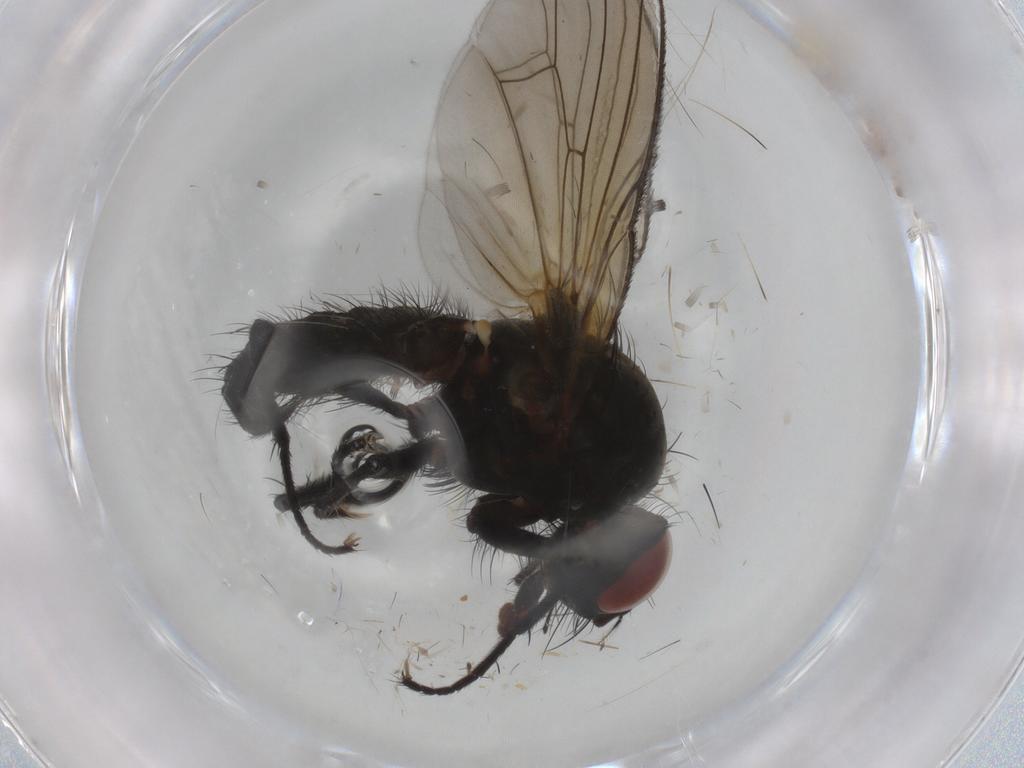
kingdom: Animalia
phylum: Arthropoda
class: Insecta
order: Diptera
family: Anthomyiidae
